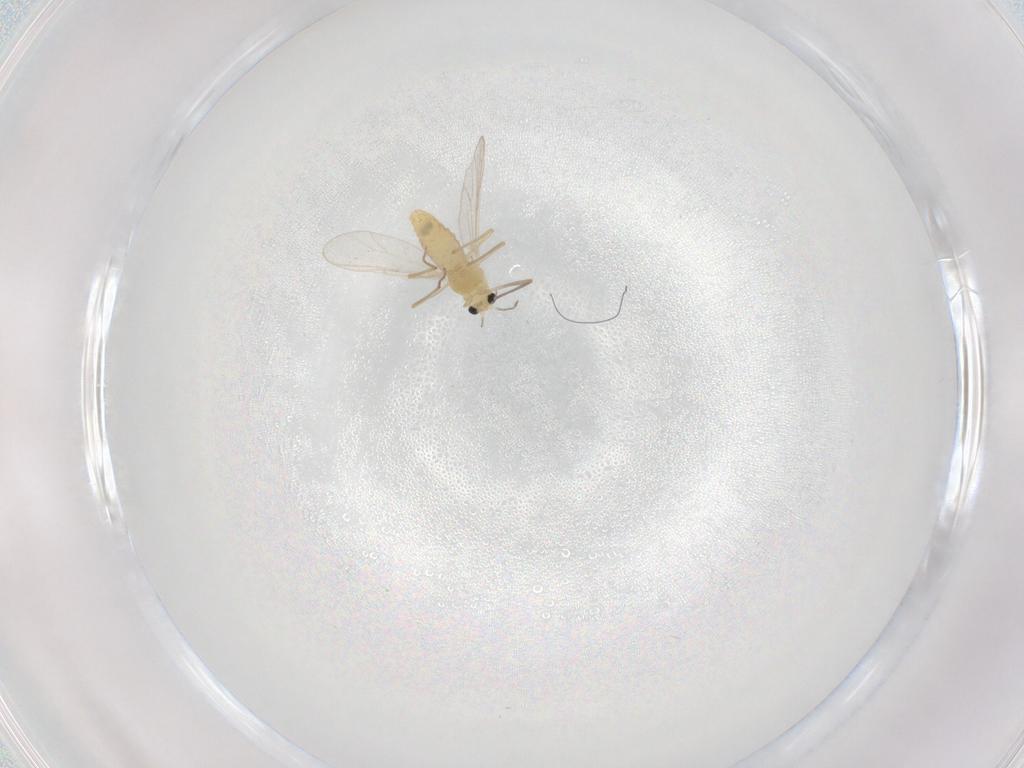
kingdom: Animalia
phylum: Arthropoda
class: Insecta
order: Diptera
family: Chironomidae
